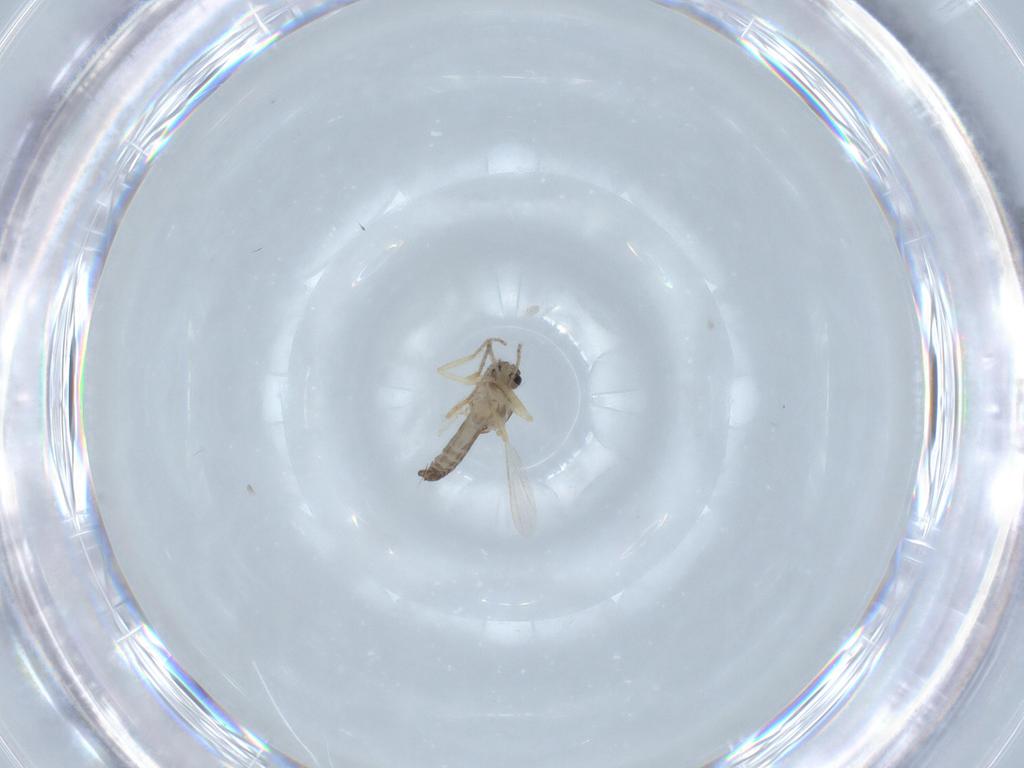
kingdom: Animalia
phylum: Arthropoda
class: Insecta
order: Diptera
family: Ceratopogonidae
